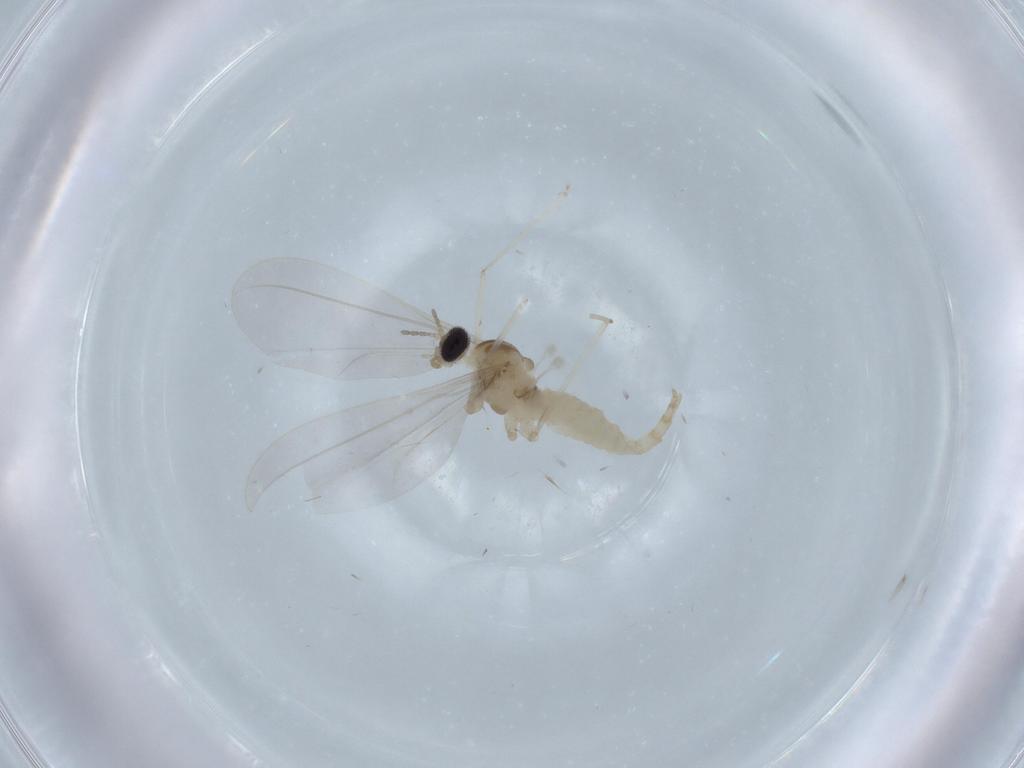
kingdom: Animalia
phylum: Arthropoda
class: Insecta
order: Diptera
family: Cecidomyiidae
